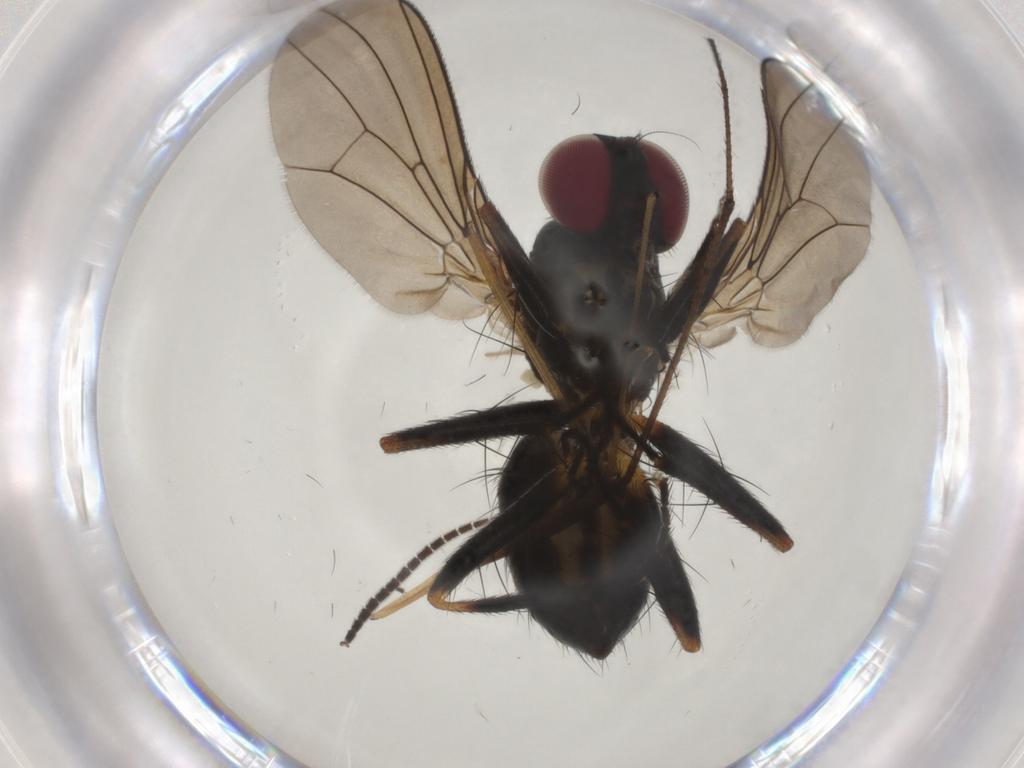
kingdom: Animalia
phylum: Arthropoda
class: Insecta
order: Diptera
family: Anthomyiidae
